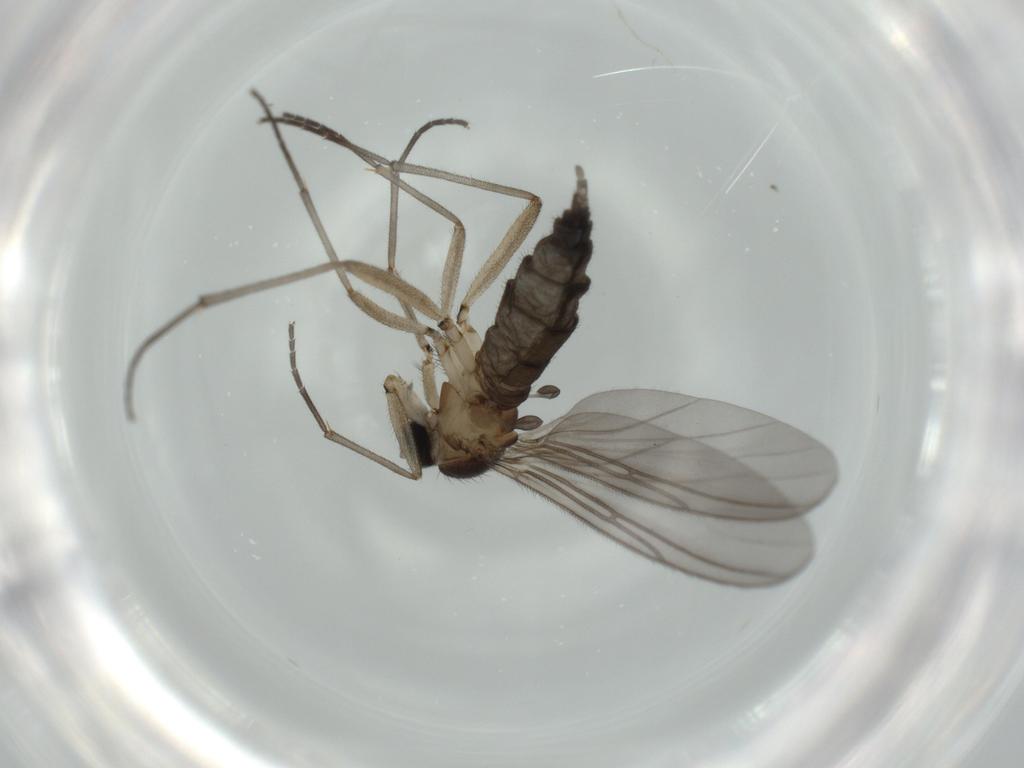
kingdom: Animalia
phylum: Arthropoda
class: Insecta
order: Diptera
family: Sciaridae
